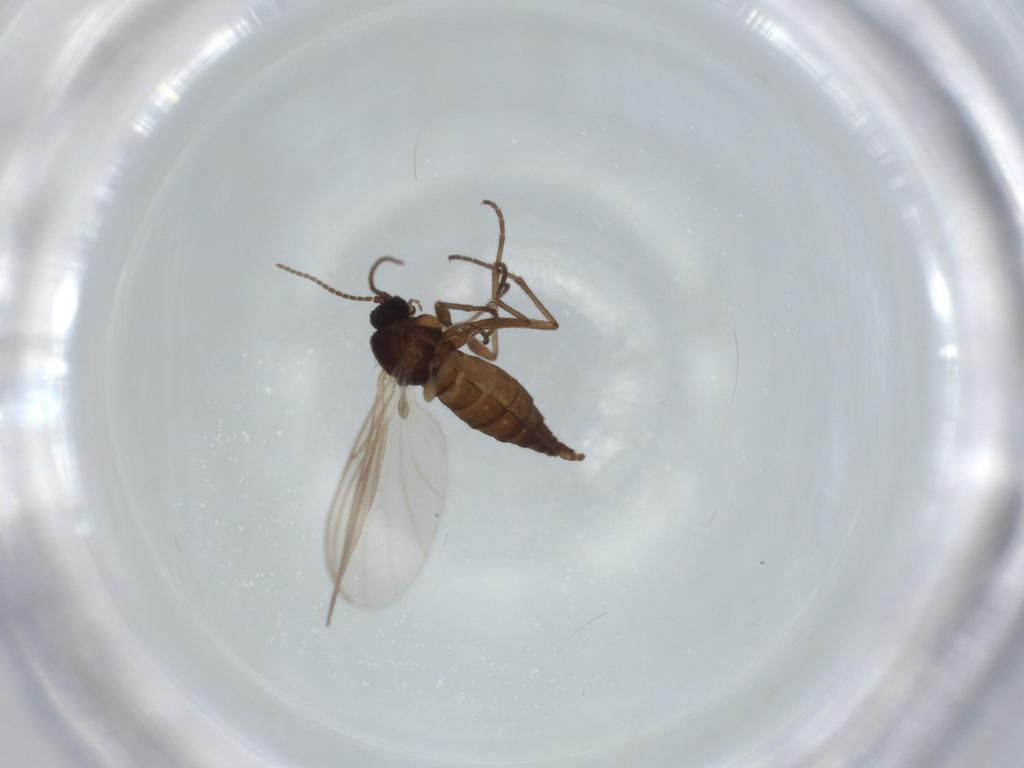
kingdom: Animalia
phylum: Arthropoda
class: Insecta
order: Diptera
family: Sciaridae
